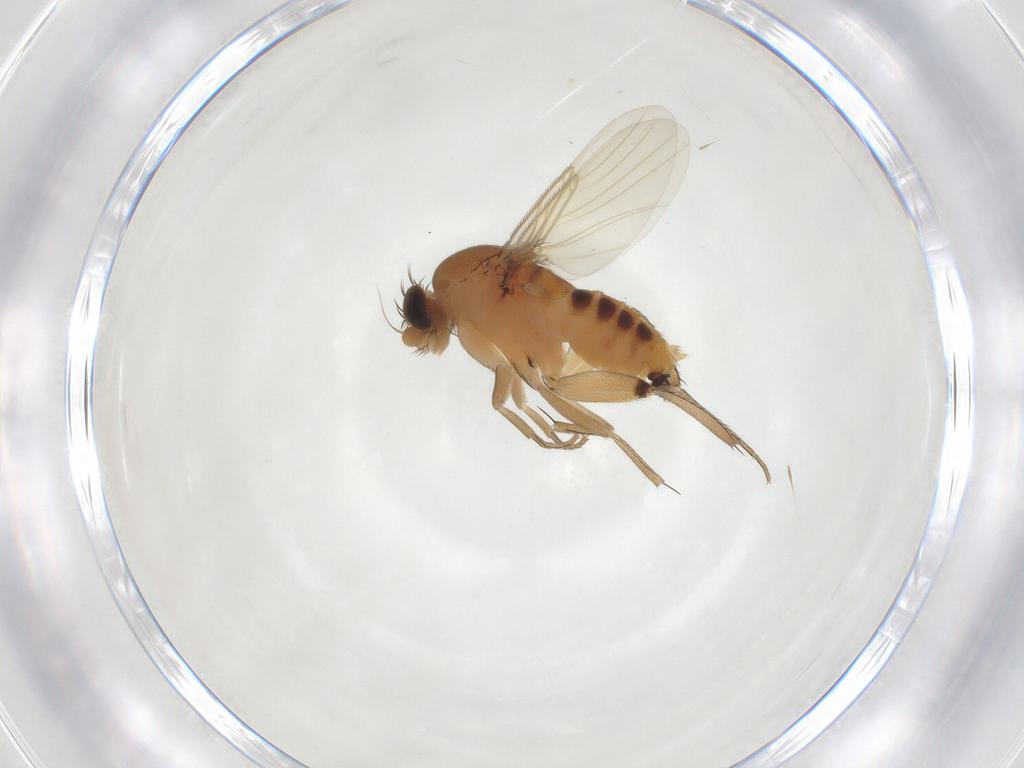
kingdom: Animalia
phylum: Arthropoda
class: Insecta
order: Diptera
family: Phoridae
